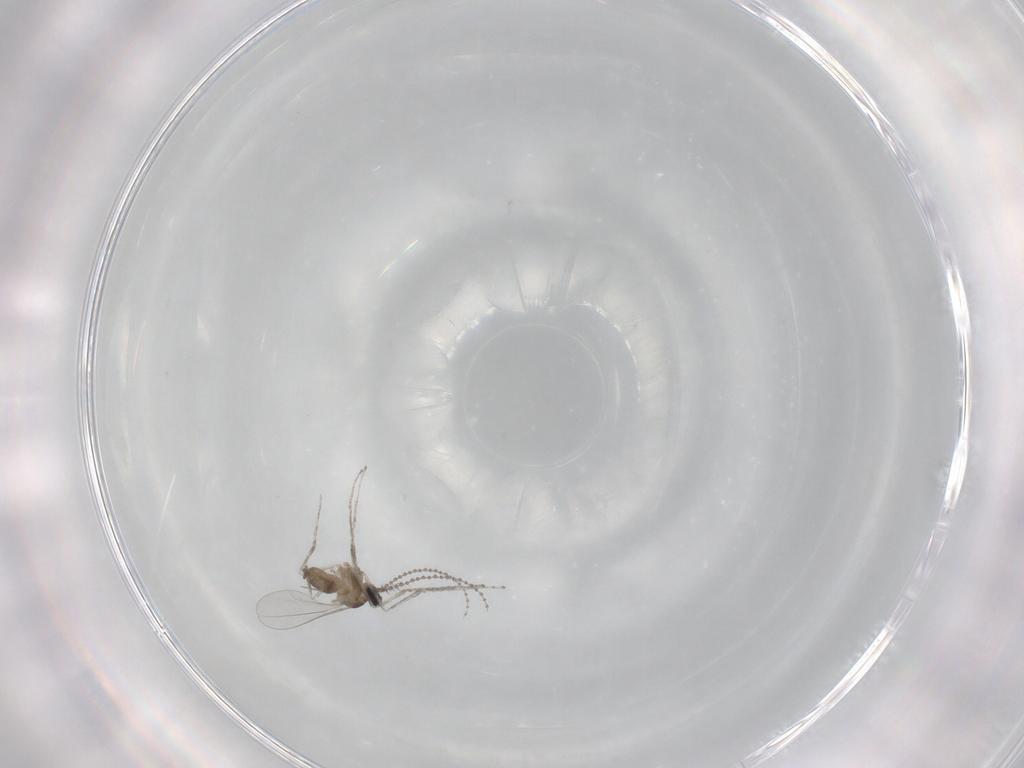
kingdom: Animalia
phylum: Arthropoda
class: Insecta
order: Diptera
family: Cecidomyiidae
